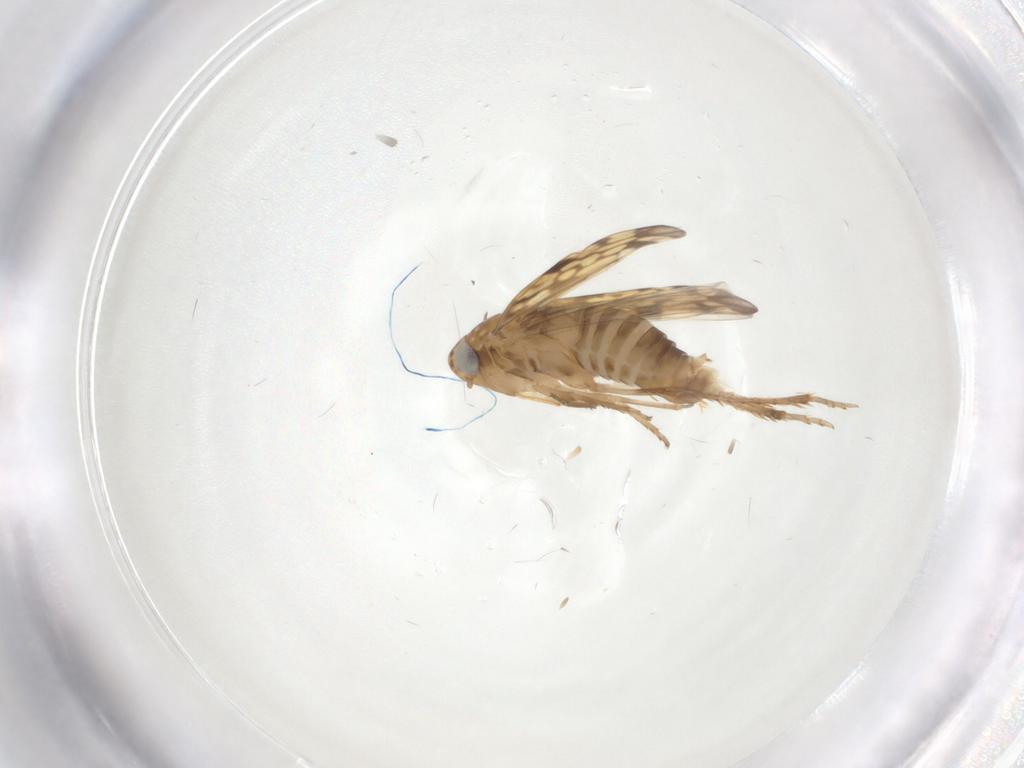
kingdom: Animalia
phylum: Arthropoda
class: Insecta
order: Hemiptera
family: Cicadellidae
